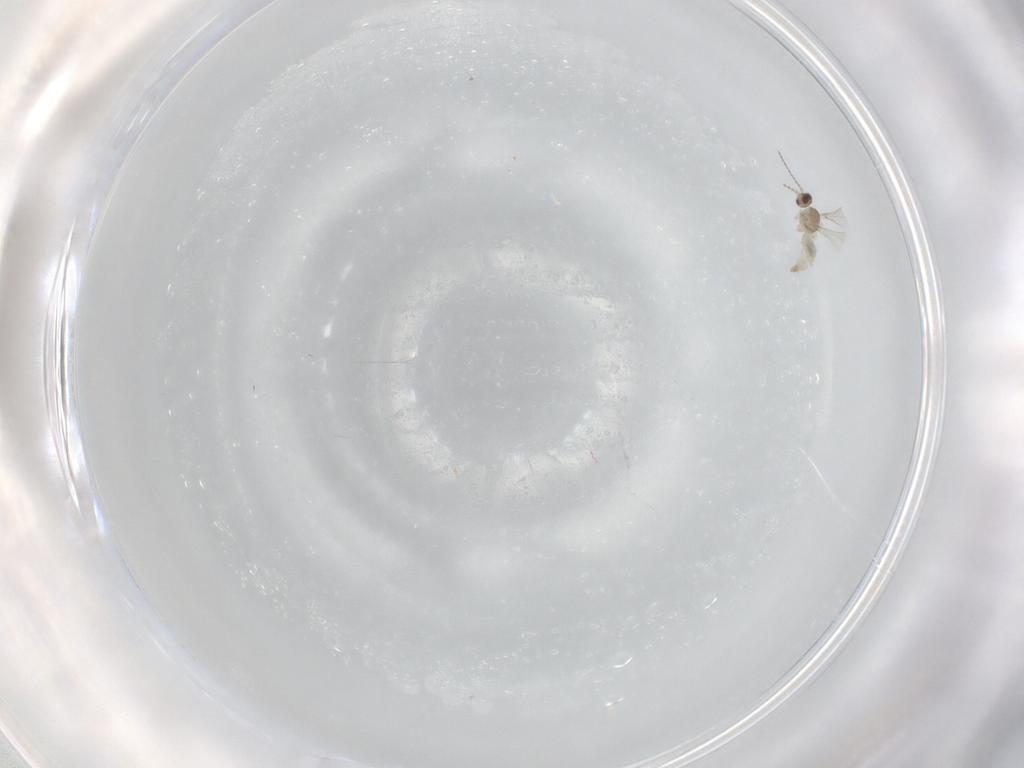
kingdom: Animalia
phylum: Arthropoda
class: Insecta
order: Diptera
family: Cecidomyiidae
